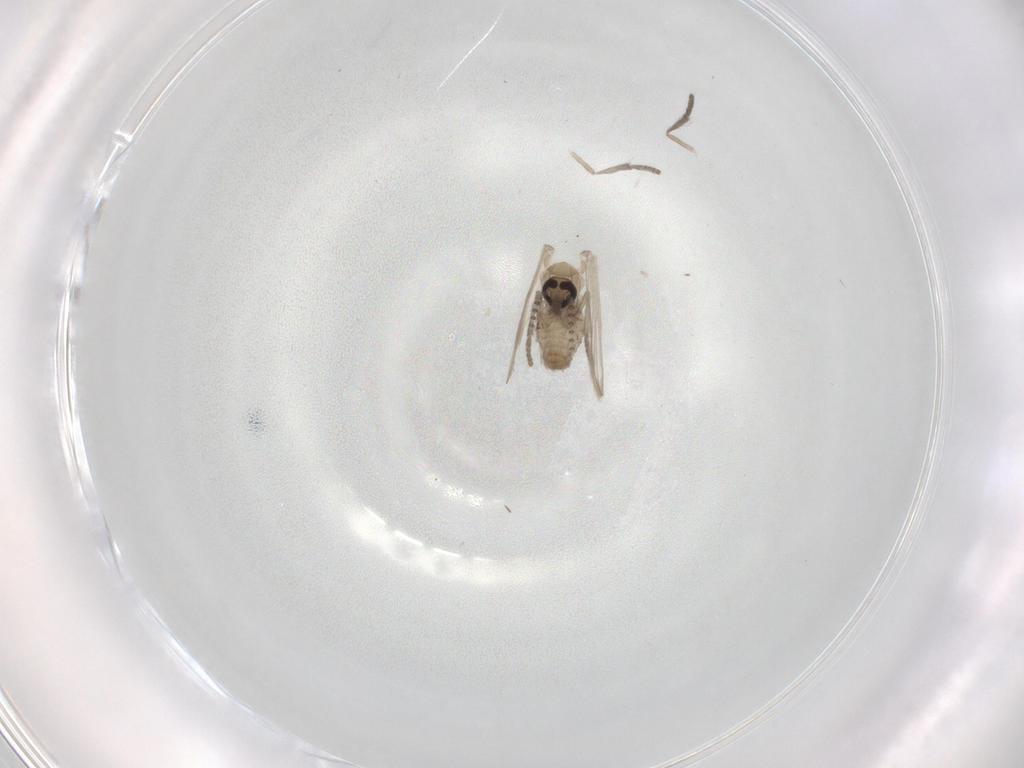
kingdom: Animalia
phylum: Arthropoda
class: Insecta
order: Diptera
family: Psychodidae
